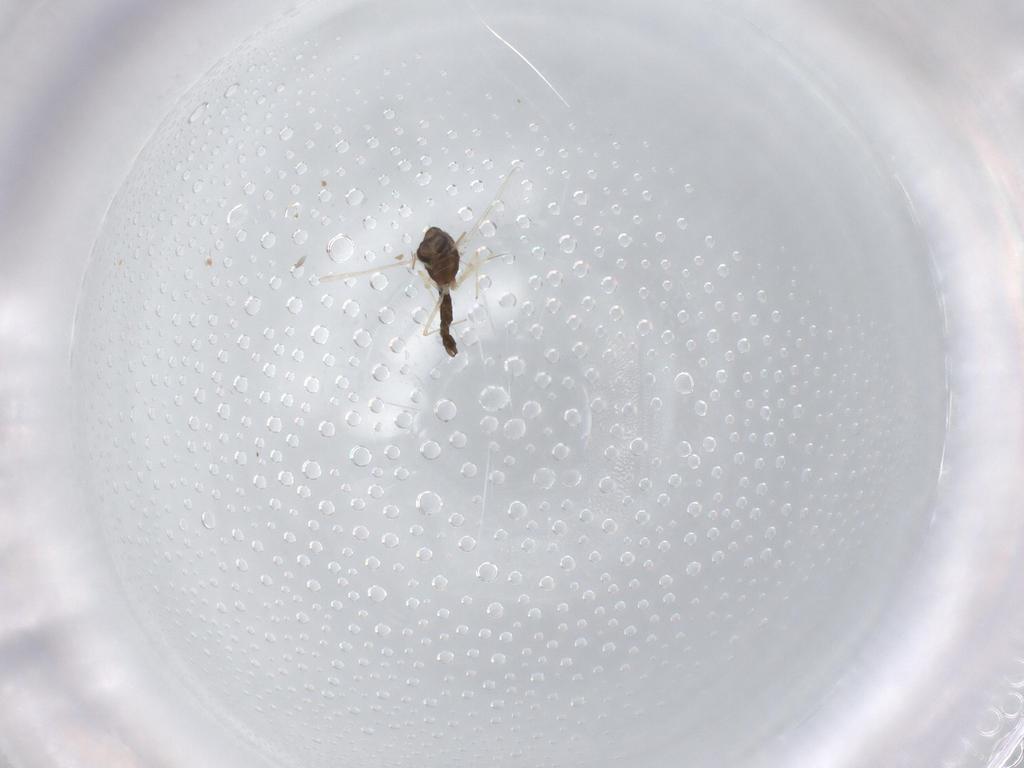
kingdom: Animalia
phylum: Arthropoda
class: Insecta
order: Diptera
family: Chironomidae
